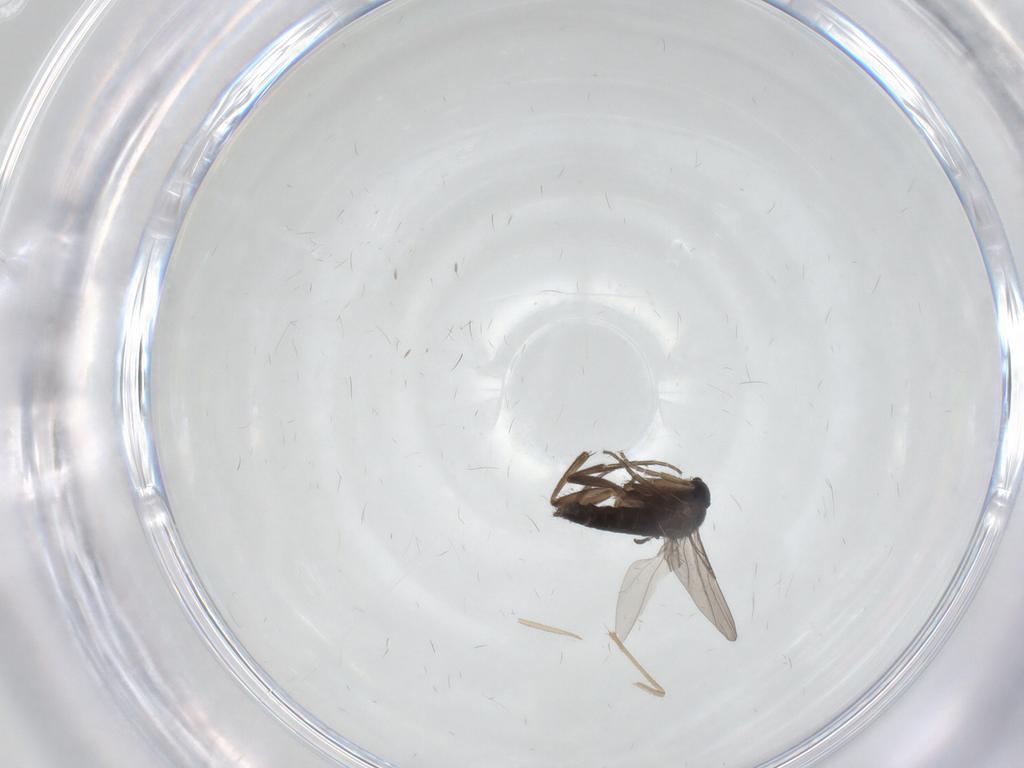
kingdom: Animalia
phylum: Arthropoda
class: Insecta
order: Diptera
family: Phoridae
